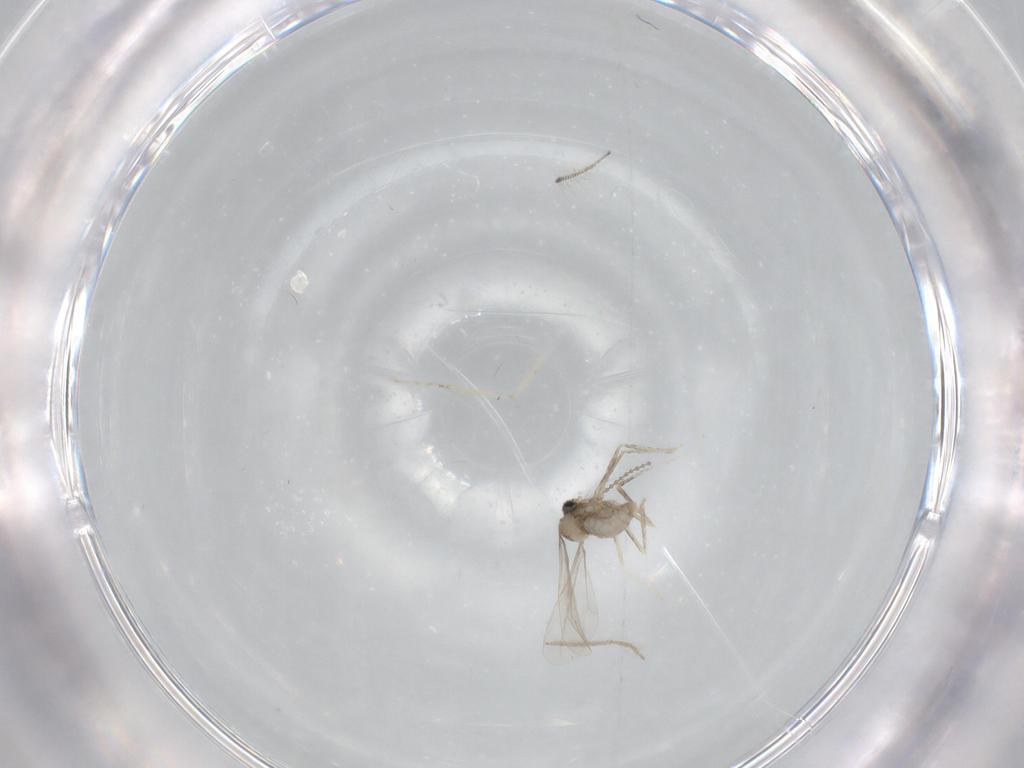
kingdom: Animalia
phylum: Arthropoda
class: Insecta
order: Diptera
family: Cecidomyiidae
